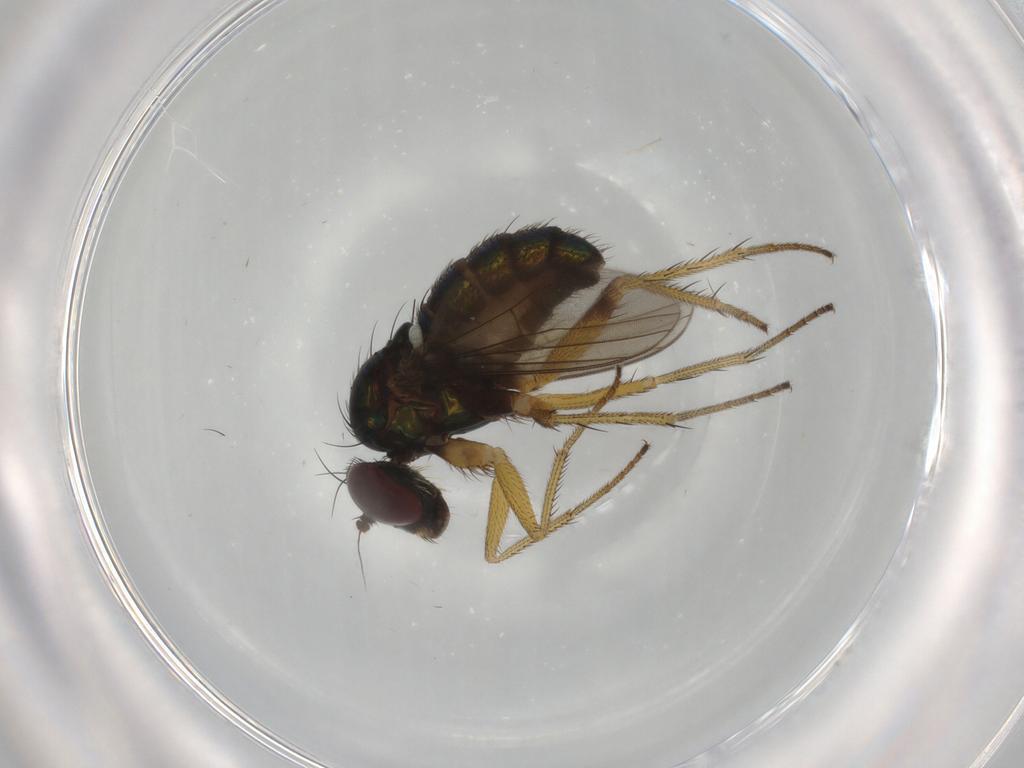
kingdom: Animalia
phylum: Arthropoda
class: Insecta
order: Diptera
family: Dolichopodidae
